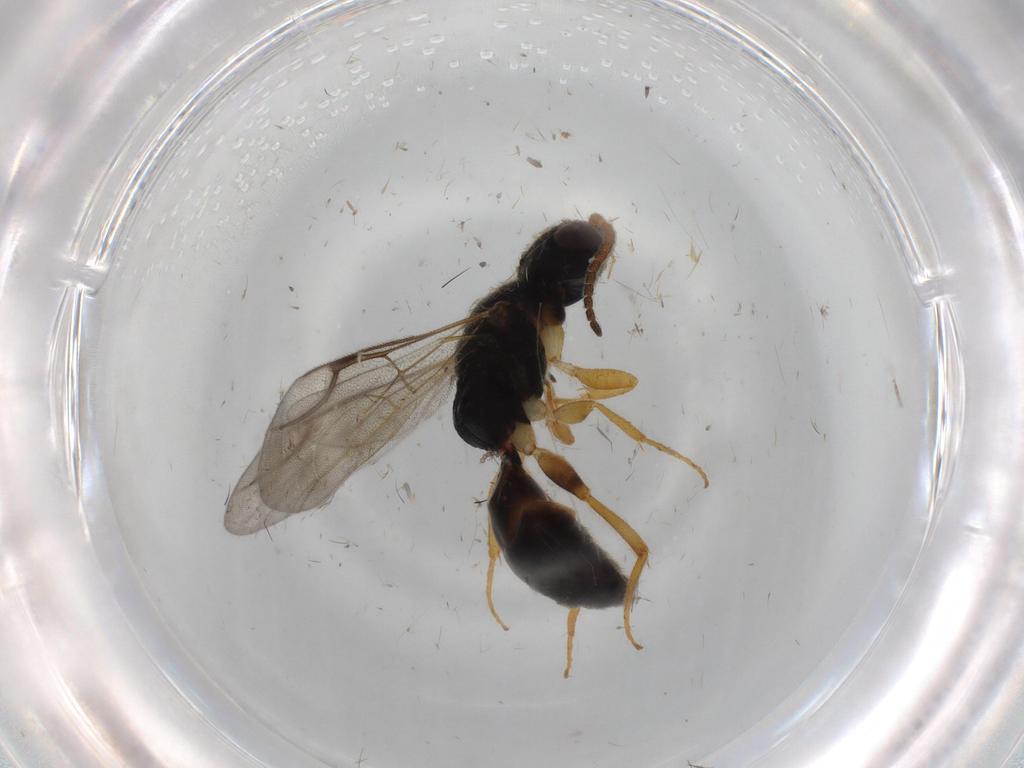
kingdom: Animalia
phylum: Arthropoda
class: Insecta
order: Hymenoptera
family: Bethylidae
